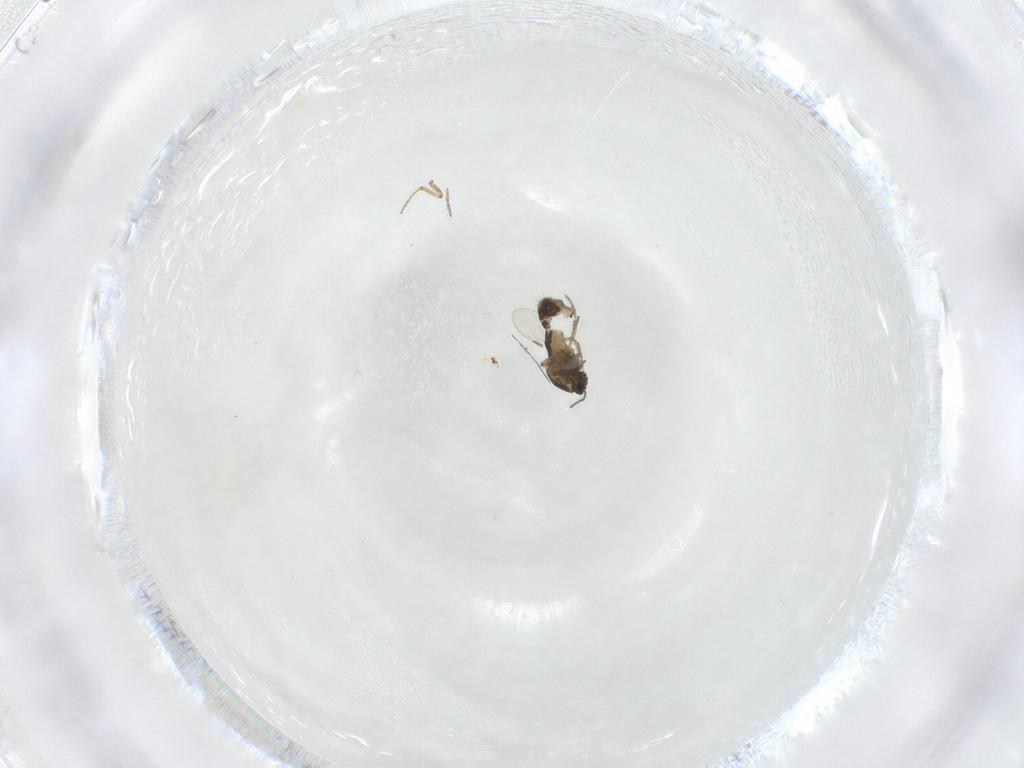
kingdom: Animalia
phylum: Arthropoda
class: Insecta
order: Diptera
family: Ceratopogonidae
